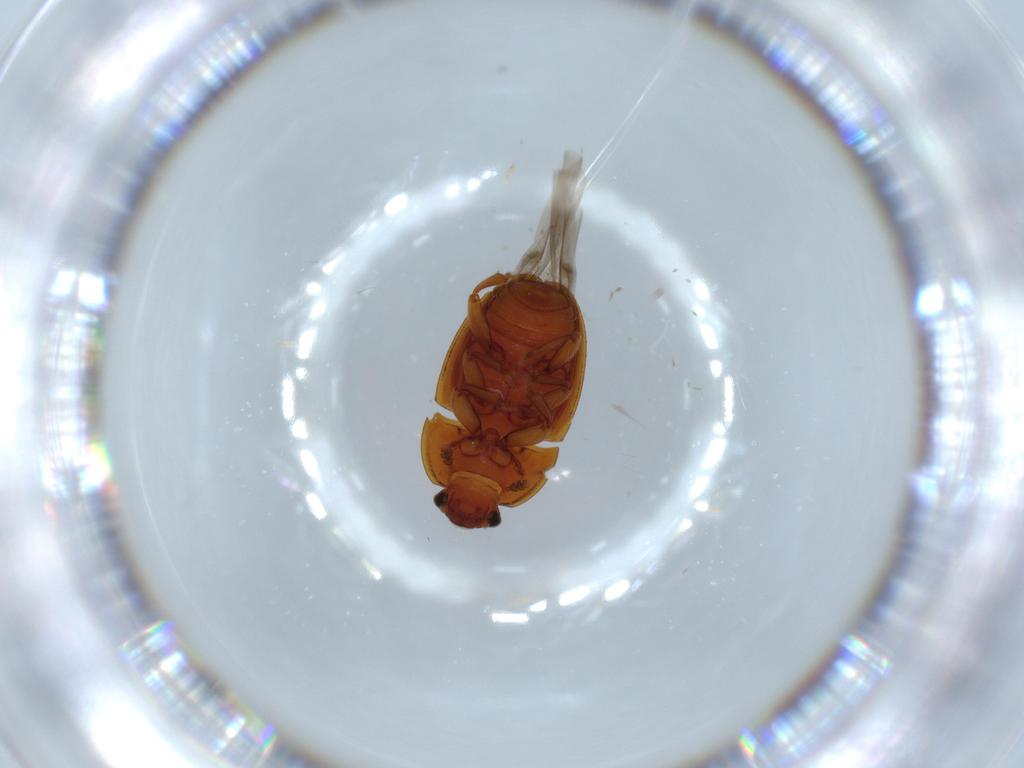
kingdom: Animalia
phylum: Arthropoda
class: Insecta
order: Coleoptera
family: Nitidulidae
